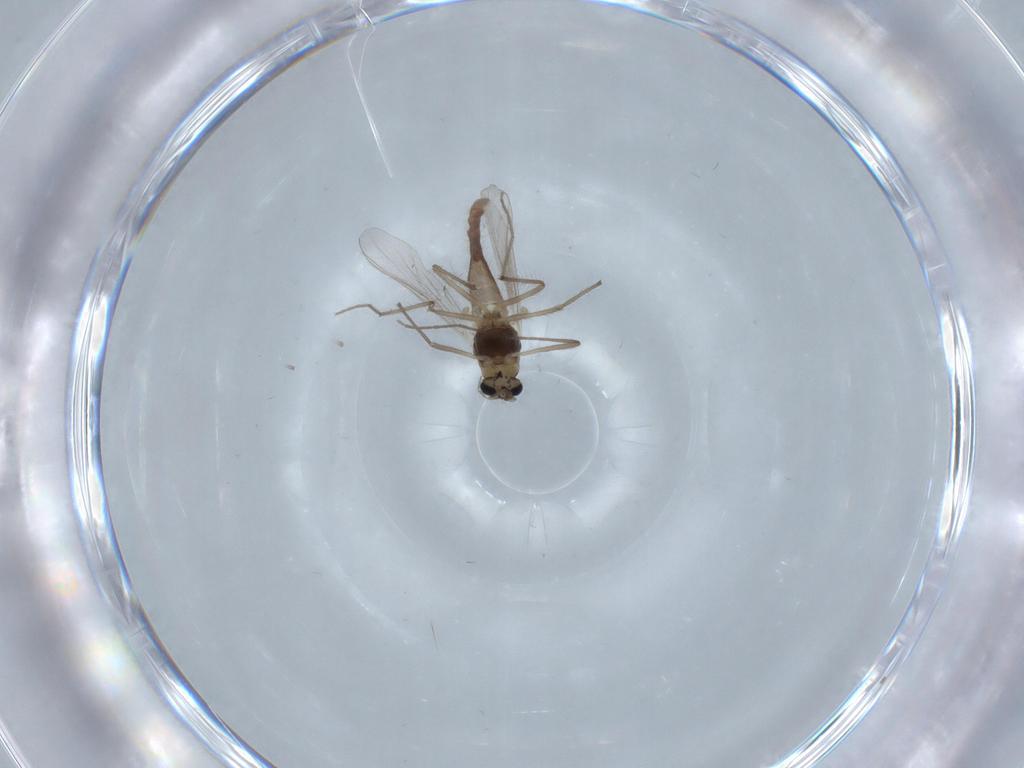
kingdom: Animalia
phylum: Arthropoda
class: Insecta
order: Diptera
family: Chironomidae
